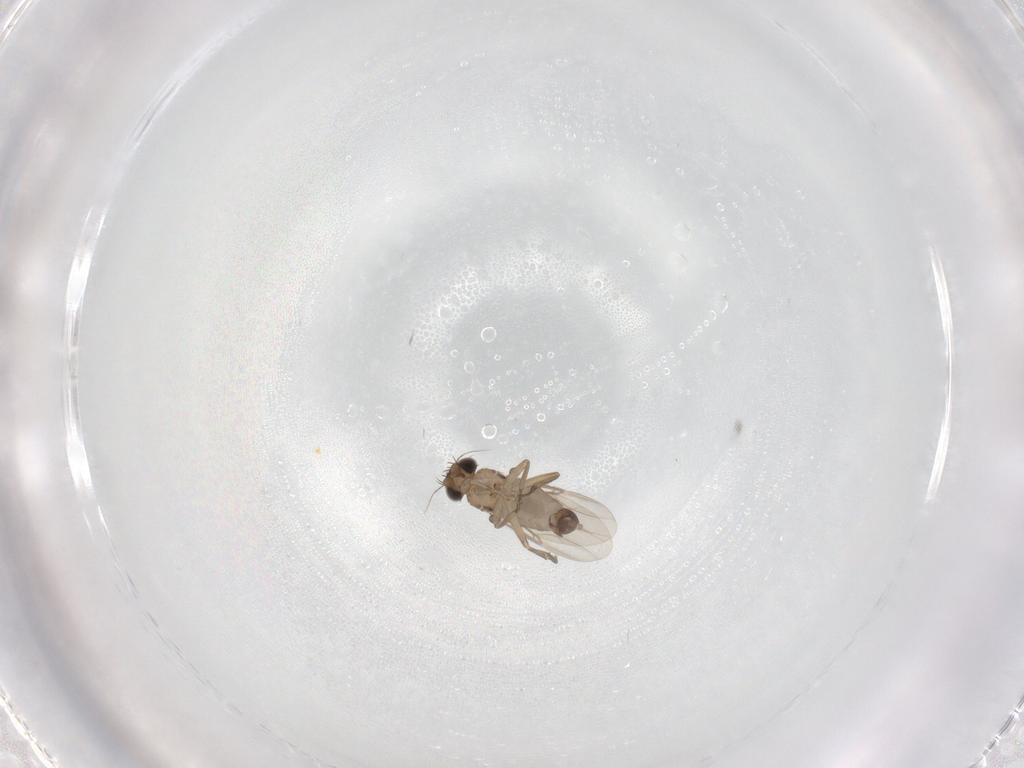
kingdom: Animalia
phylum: Arthropoda
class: Insecta
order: Diptera
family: Phoridae
